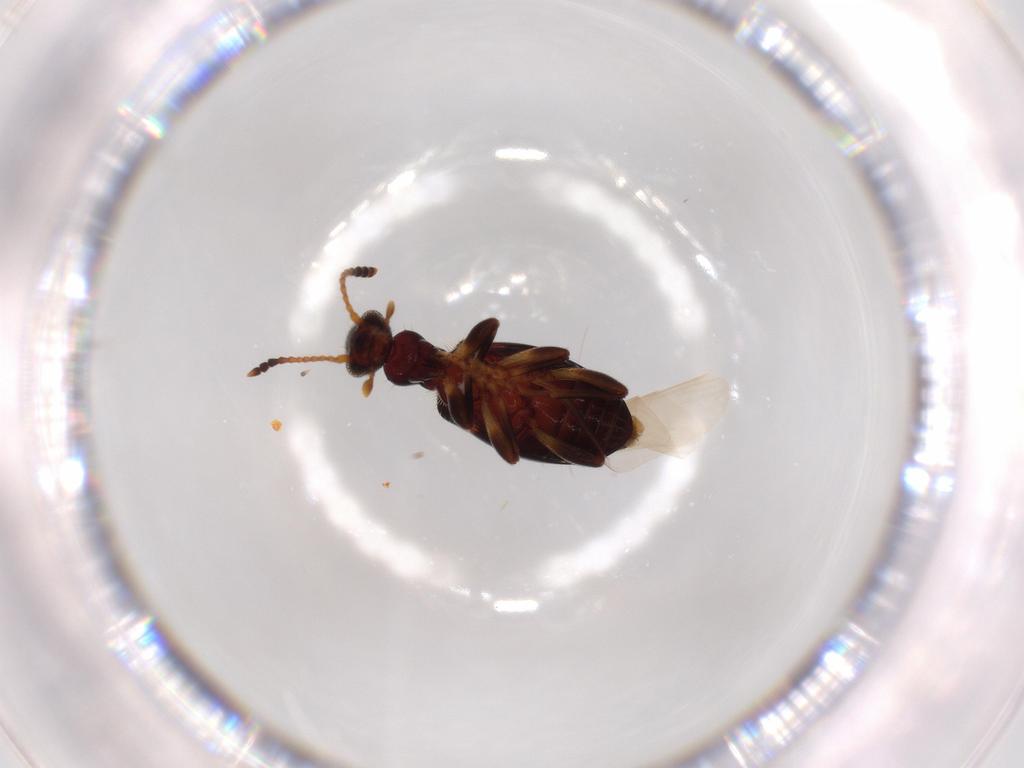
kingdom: Animalia
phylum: Arthropoda
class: Insecta
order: Coleoptera
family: Anthicidae
